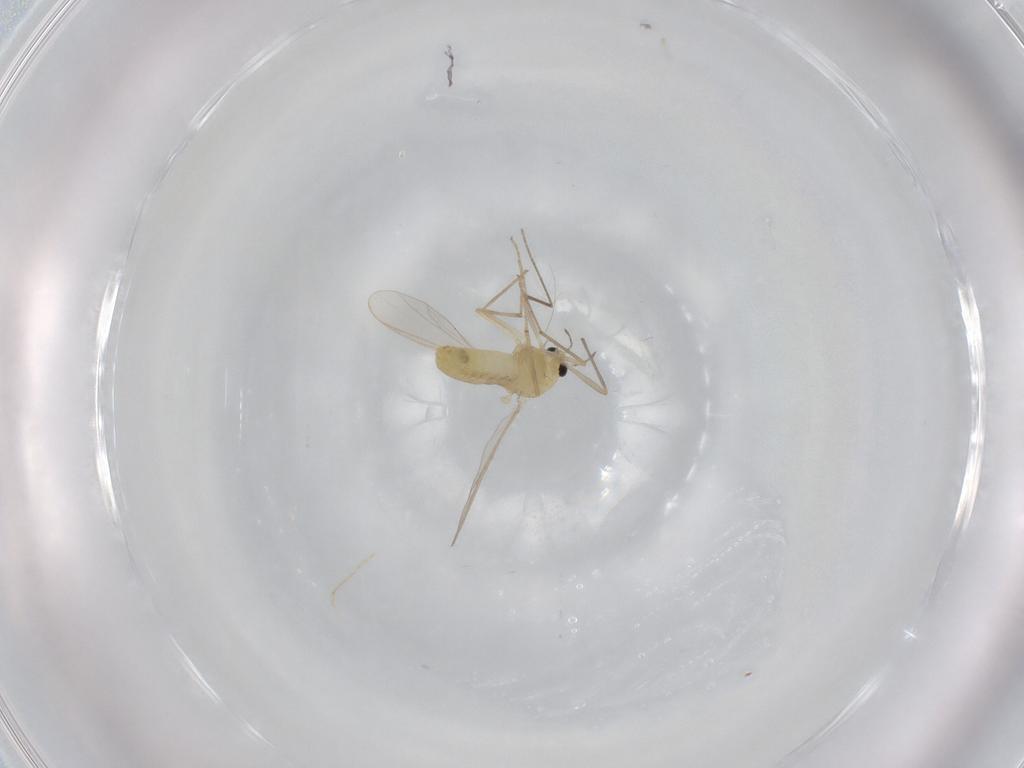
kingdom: Animalia
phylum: Arthropoda
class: Insecta
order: Diptera
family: Chironomidae
